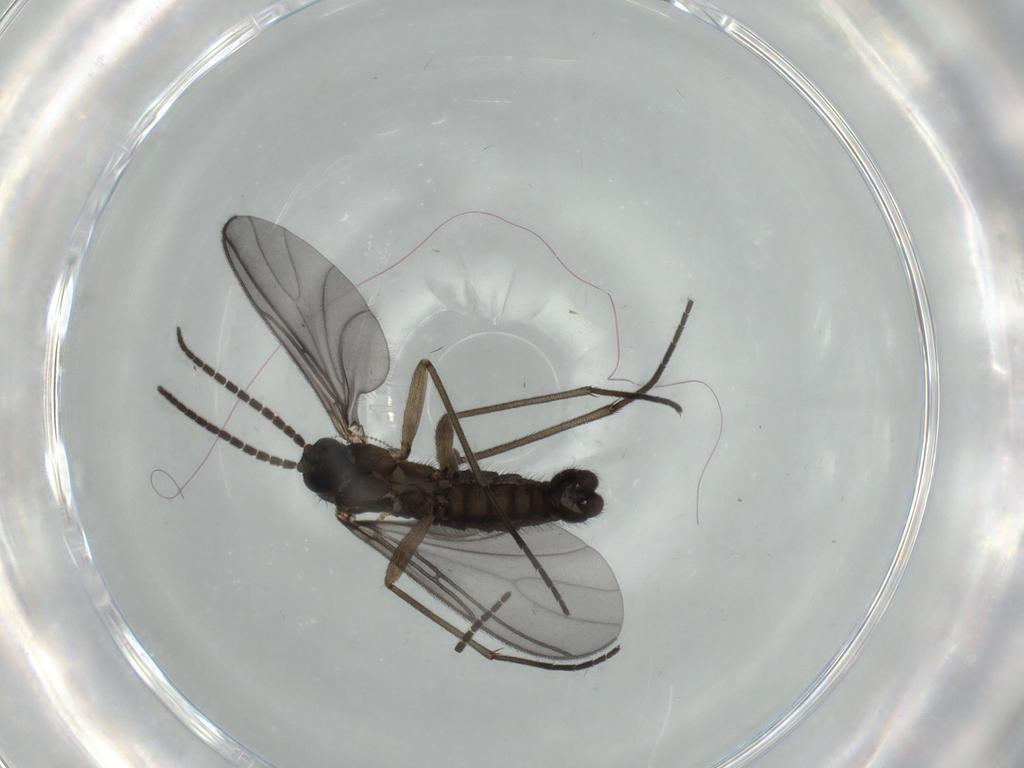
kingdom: Animalia
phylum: Arthropoda
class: Insecta
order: Diptera
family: Sciaridae
